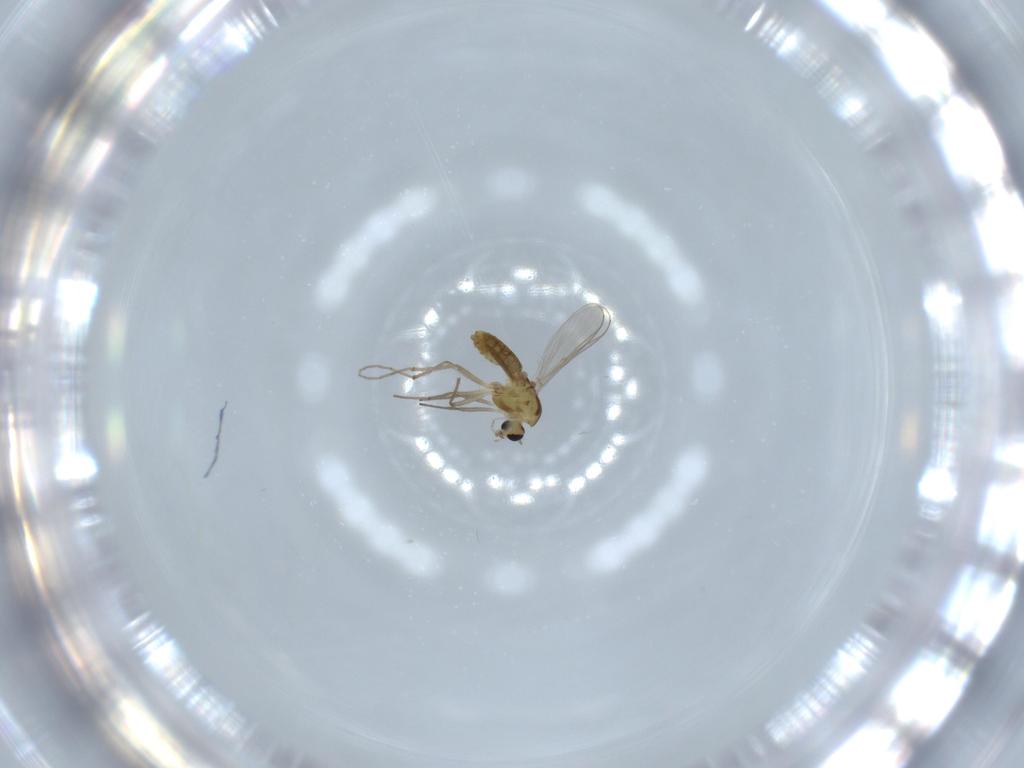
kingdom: Animalia
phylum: Arthropoda
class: Insecta
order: Diptera
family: Chironomidae
